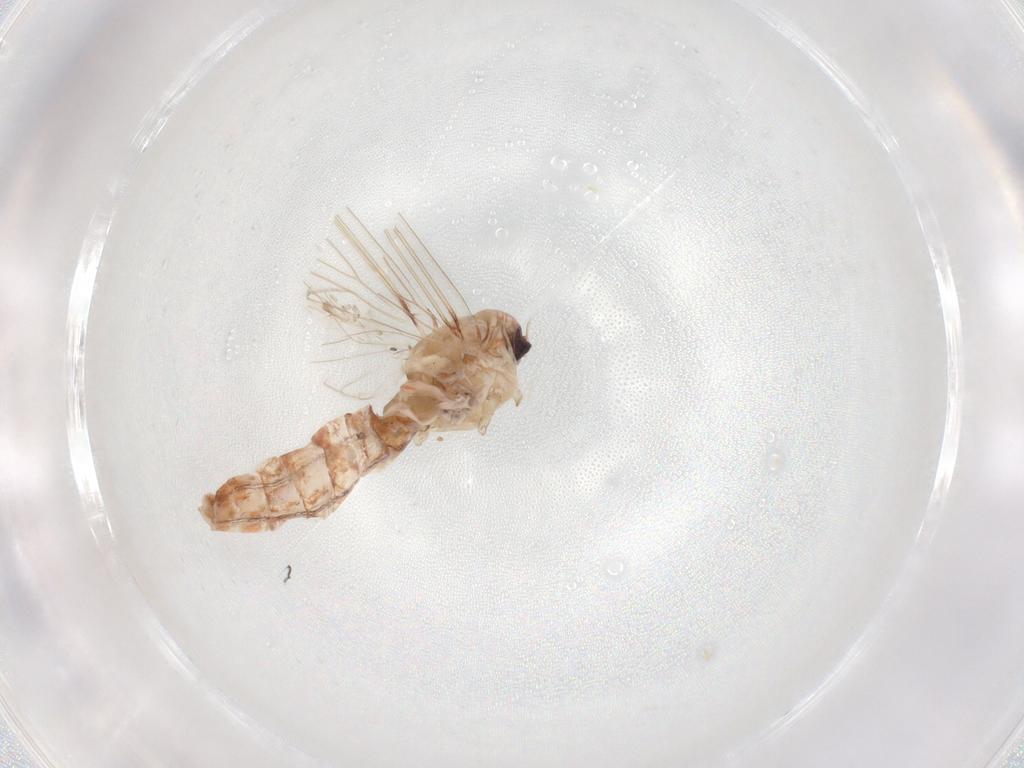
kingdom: Animalia
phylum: Arthropoda
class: Insecta
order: Ephemeroptera
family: Baetidae
